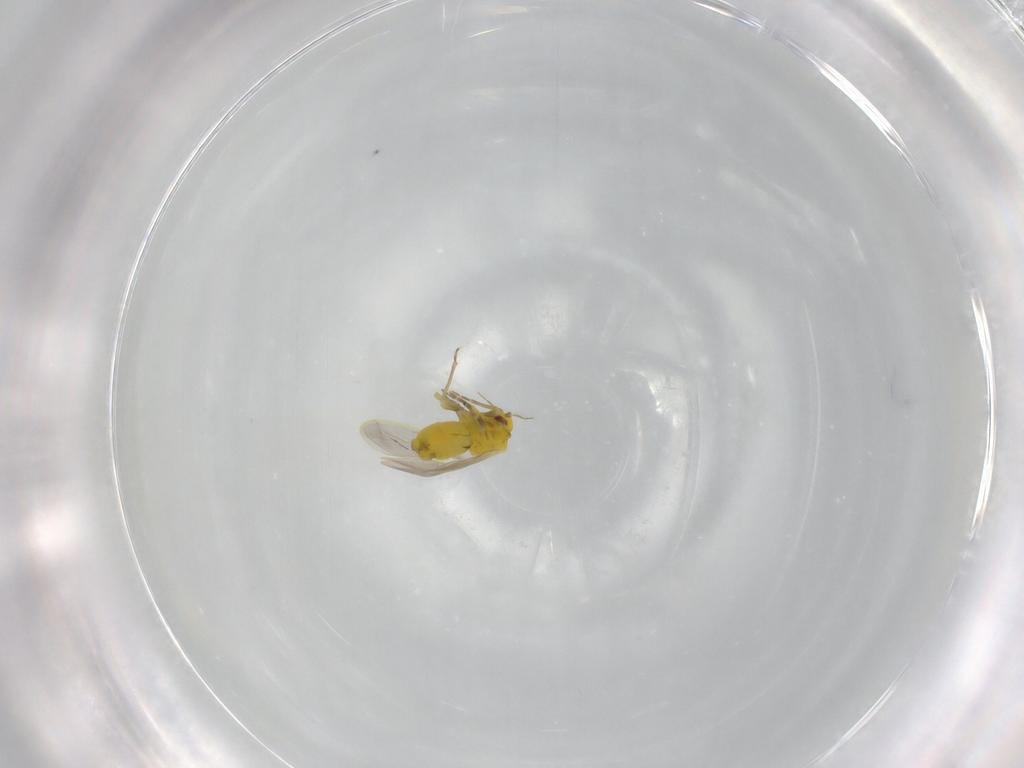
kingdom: Animalia
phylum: Arthropoda
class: Insecta
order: Hemiptera
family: Aleyrodidae
